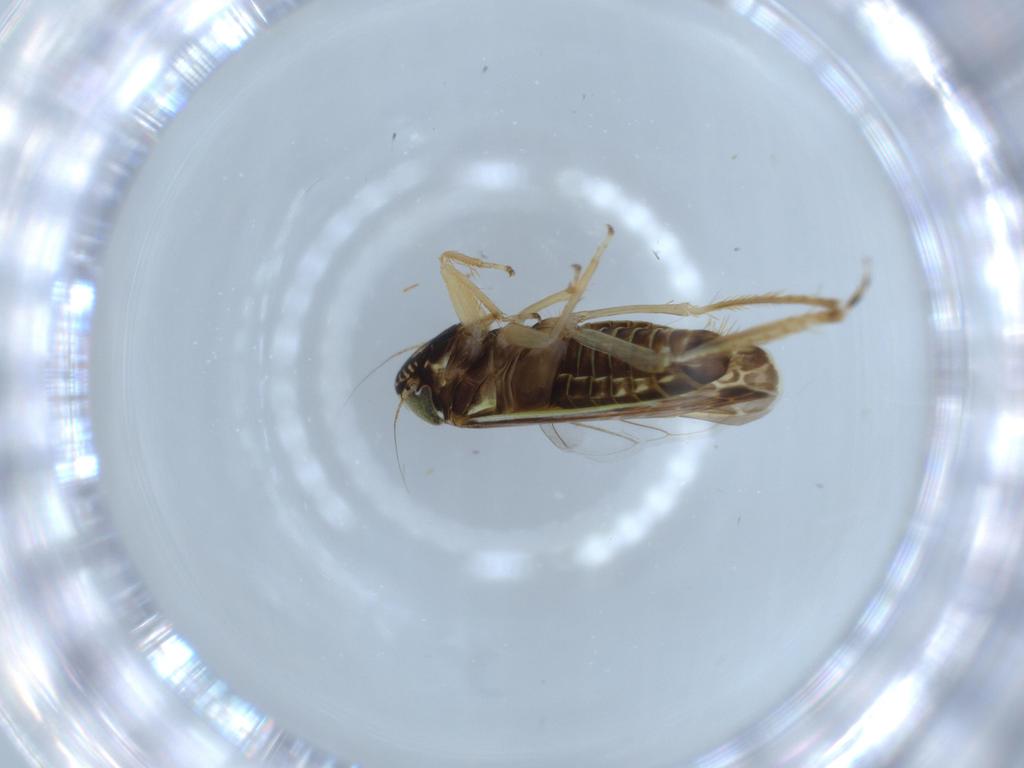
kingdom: Animalia
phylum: Arthropoda
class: Insecta
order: Hemiptera
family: Cicadellidae
